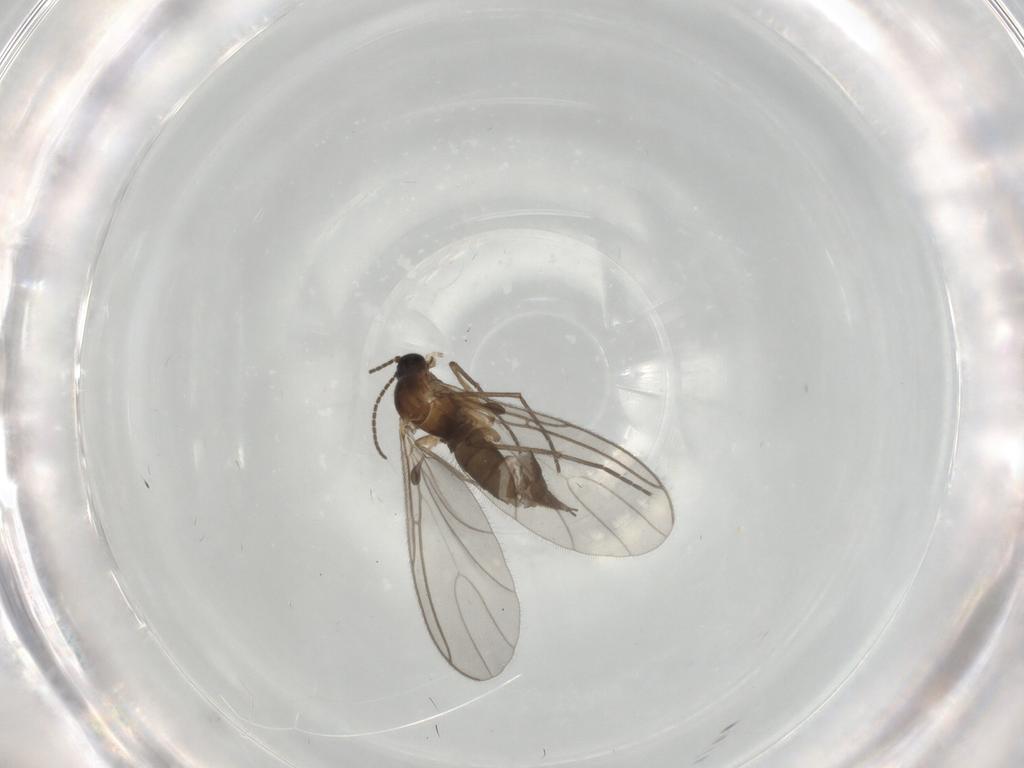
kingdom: Animalia
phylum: Arthropoda
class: Insecta
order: Diptera
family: Sciaridae
